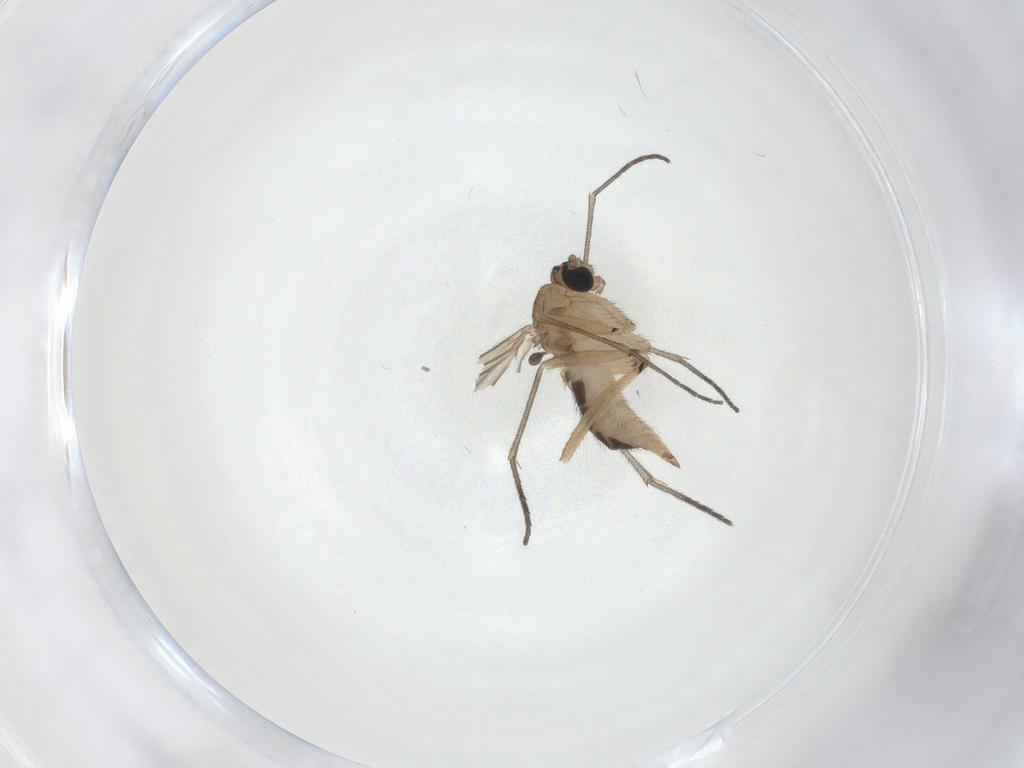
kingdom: Animalia
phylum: Arthropoda
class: Insecta
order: Diptera
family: Sciaridae
